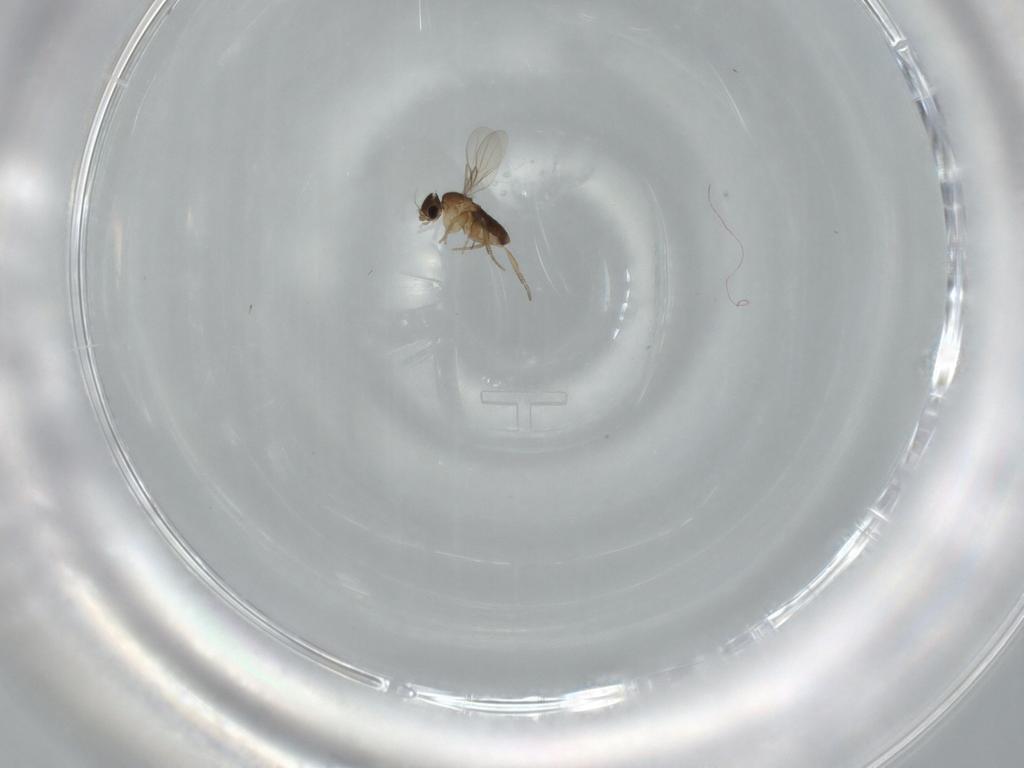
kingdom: Animalia
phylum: Arthropoda
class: Insecta
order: Diptera
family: Phoridae
